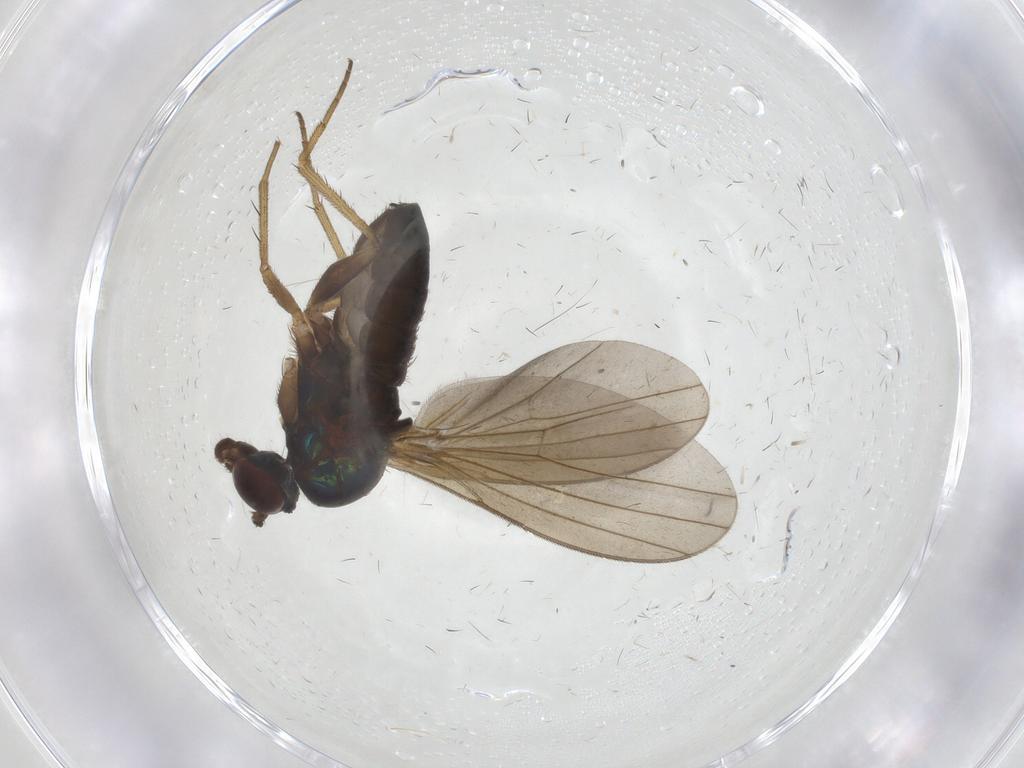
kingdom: Animalia
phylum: Arthropoda
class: Insecta
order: Diptera
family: Dolichopodidae
